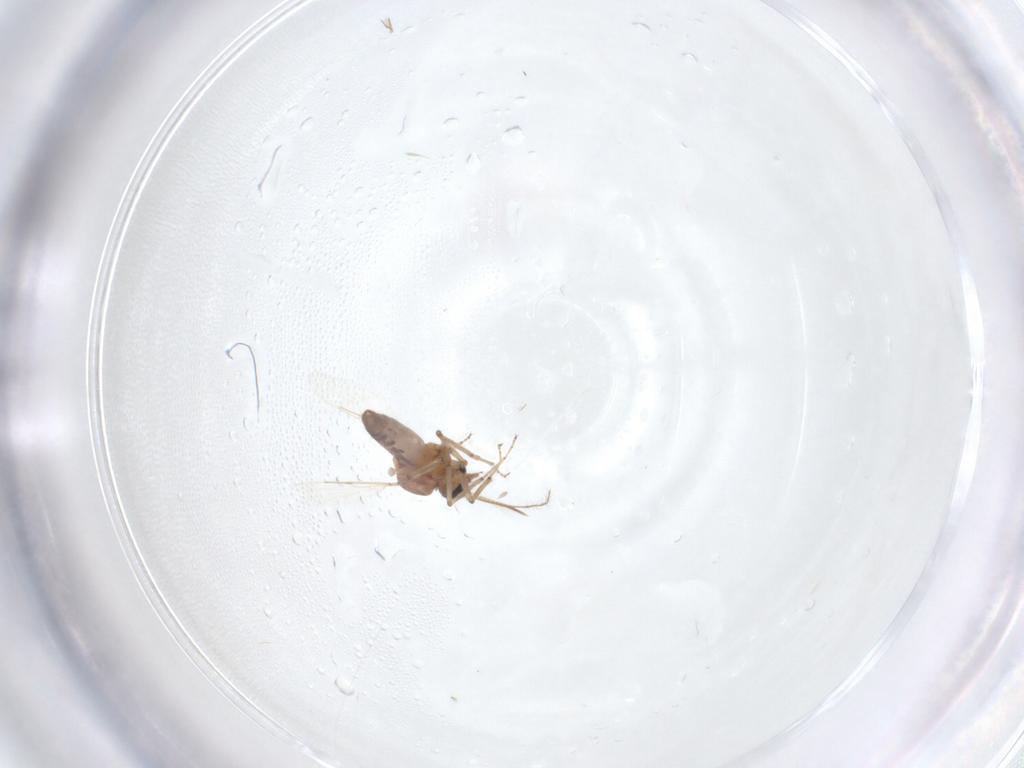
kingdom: Animalia
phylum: Arthropoda
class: Insecta
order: Diptera
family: Ceratopogonidae
